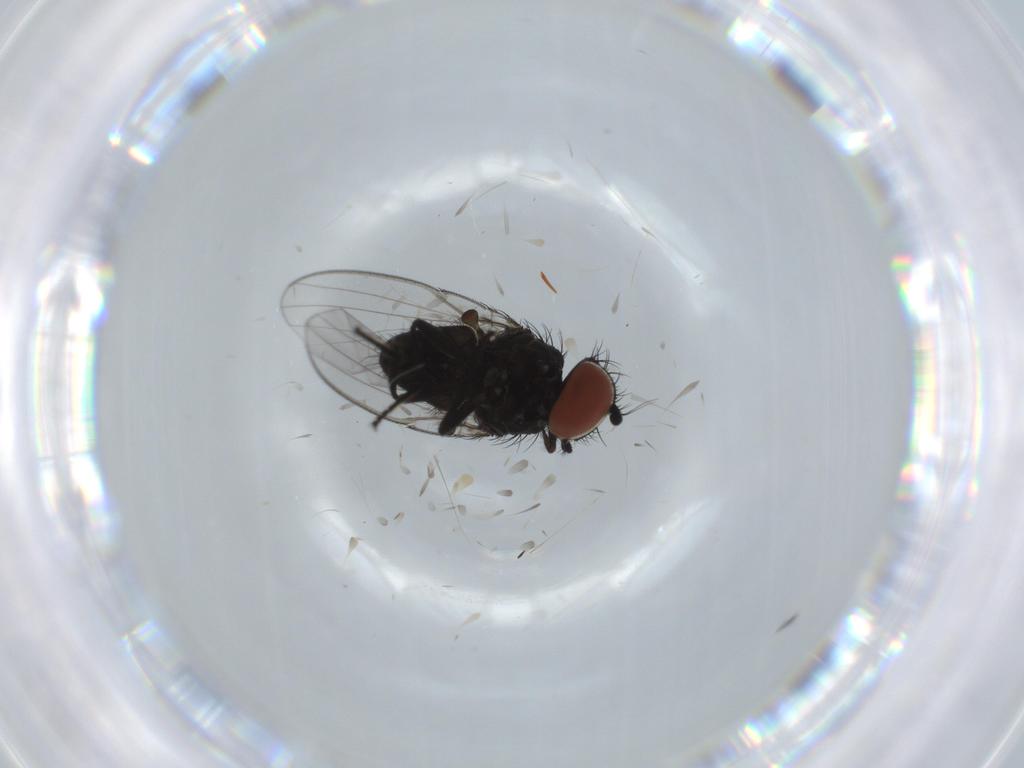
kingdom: Animalia
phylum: Arthropoda
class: Insecta
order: Diptera
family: Milichiidae
